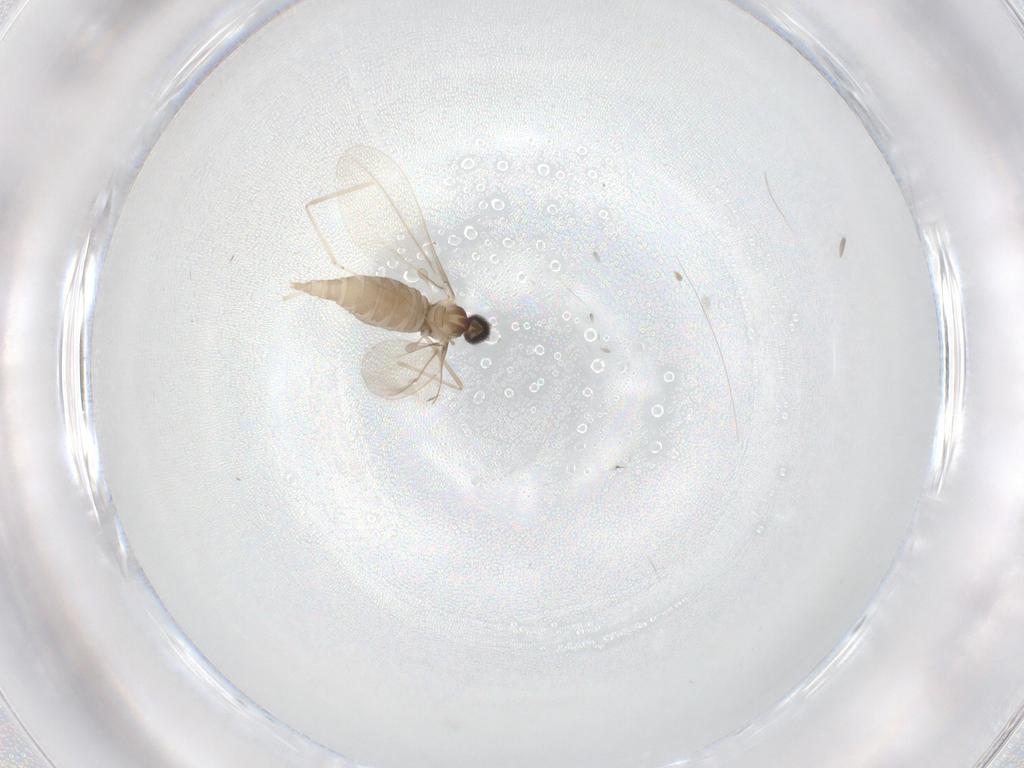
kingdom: Animalia
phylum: Arthropoda
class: Insecta
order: Diptera
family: Cecidomyiidae
